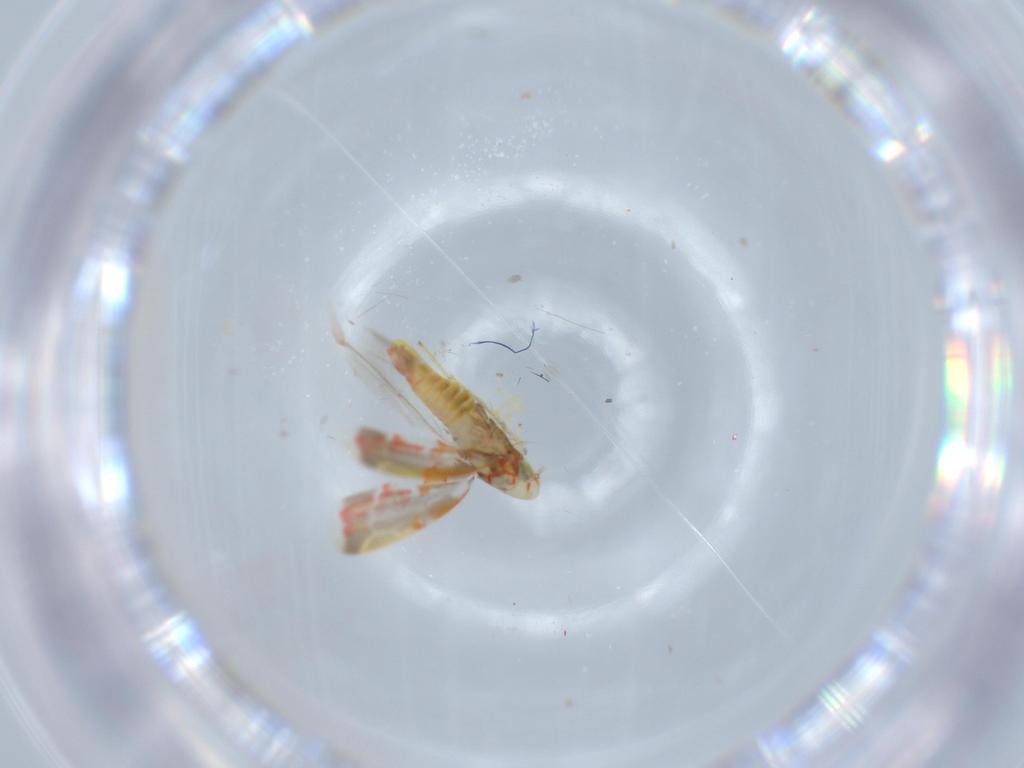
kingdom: Animalia
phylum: Arthropoda
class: Insecta
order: Hemiptera
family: Cicadellidae
